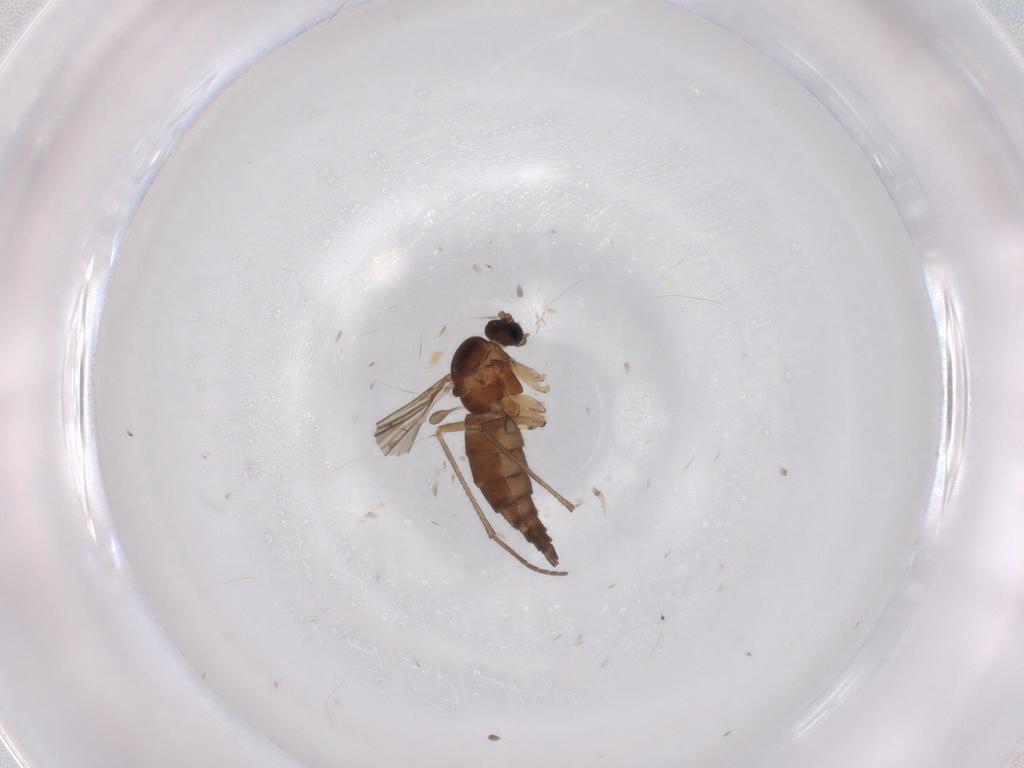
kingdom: Animalia
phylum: Arthropoda
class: Insecta
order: Diptera
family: Sciaridae
